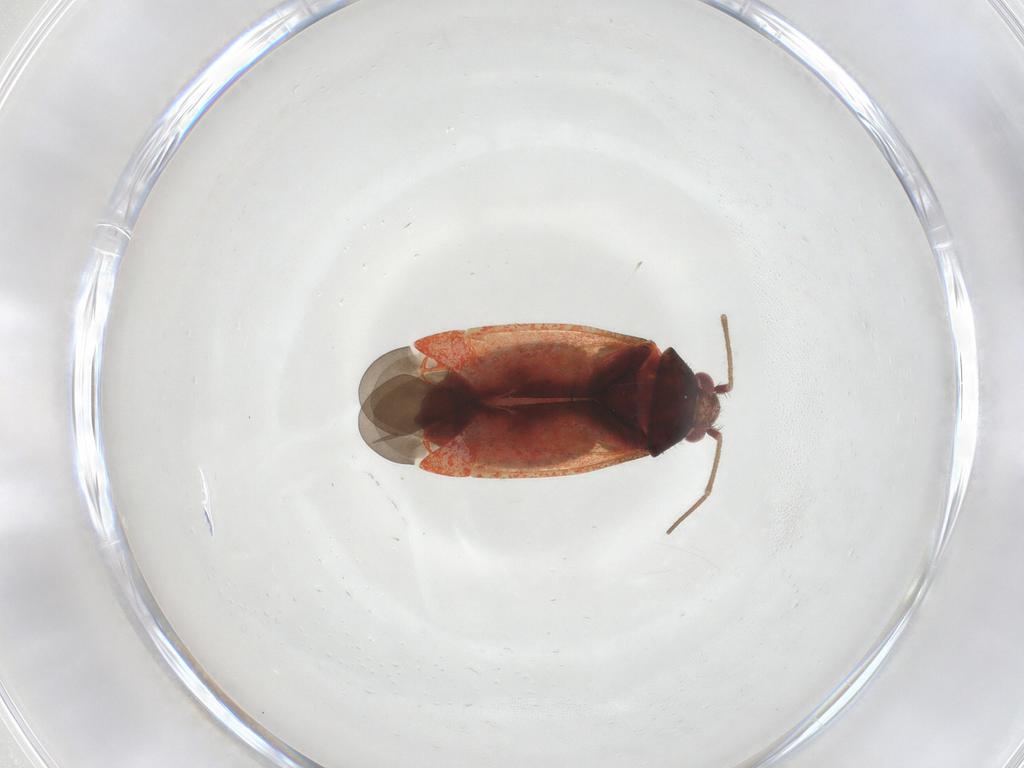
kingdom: Animalia
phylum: Arthropoda
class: Insecta
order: Hemiptera
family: Miridae
